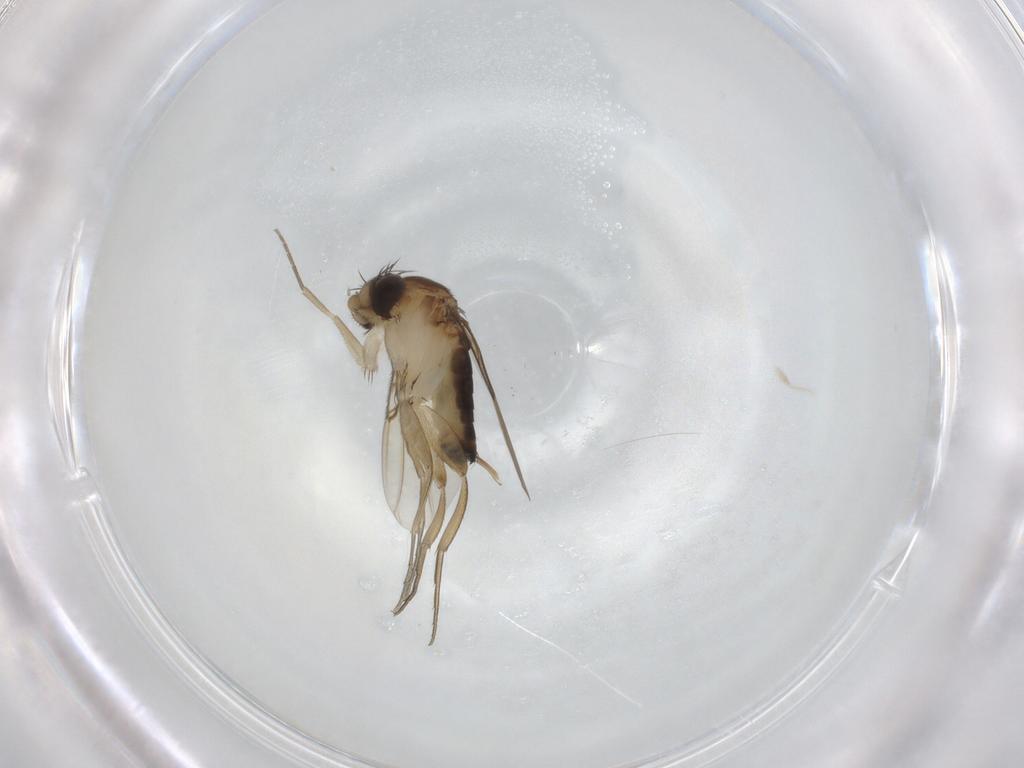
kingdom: Animalia
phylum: Arthropoda
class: Insecta
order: Diptera
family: Phoridae
